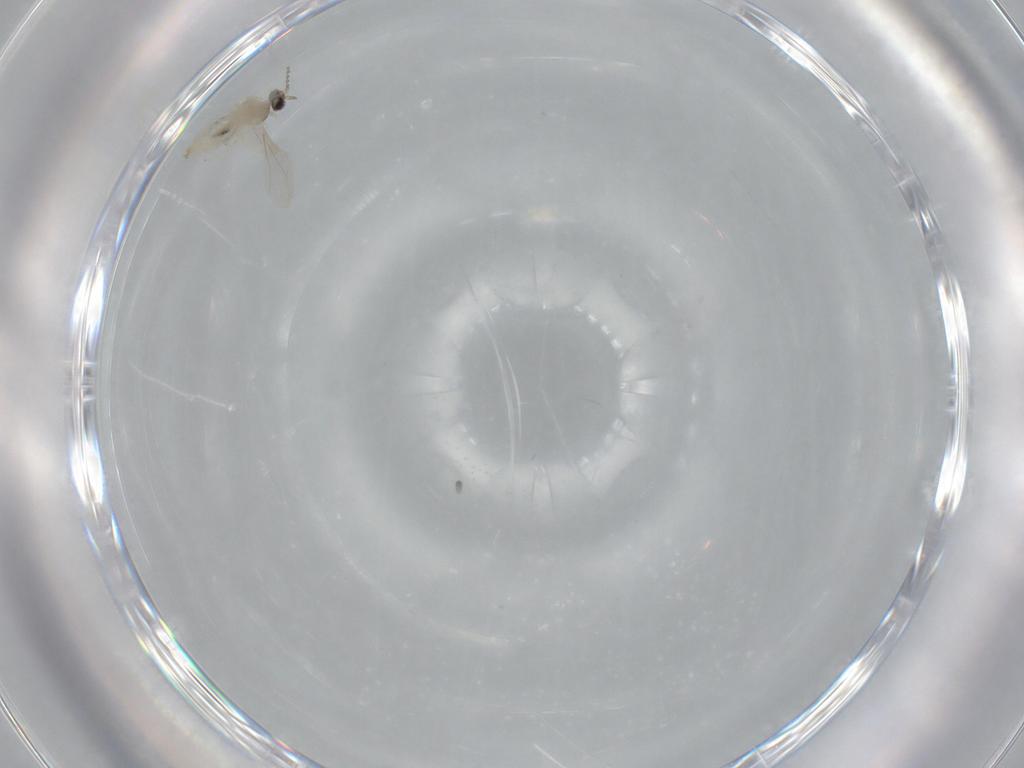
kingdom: Animalia
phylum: Arthropoda
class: Insecta
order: Diptera
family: Cecidomyiidae
